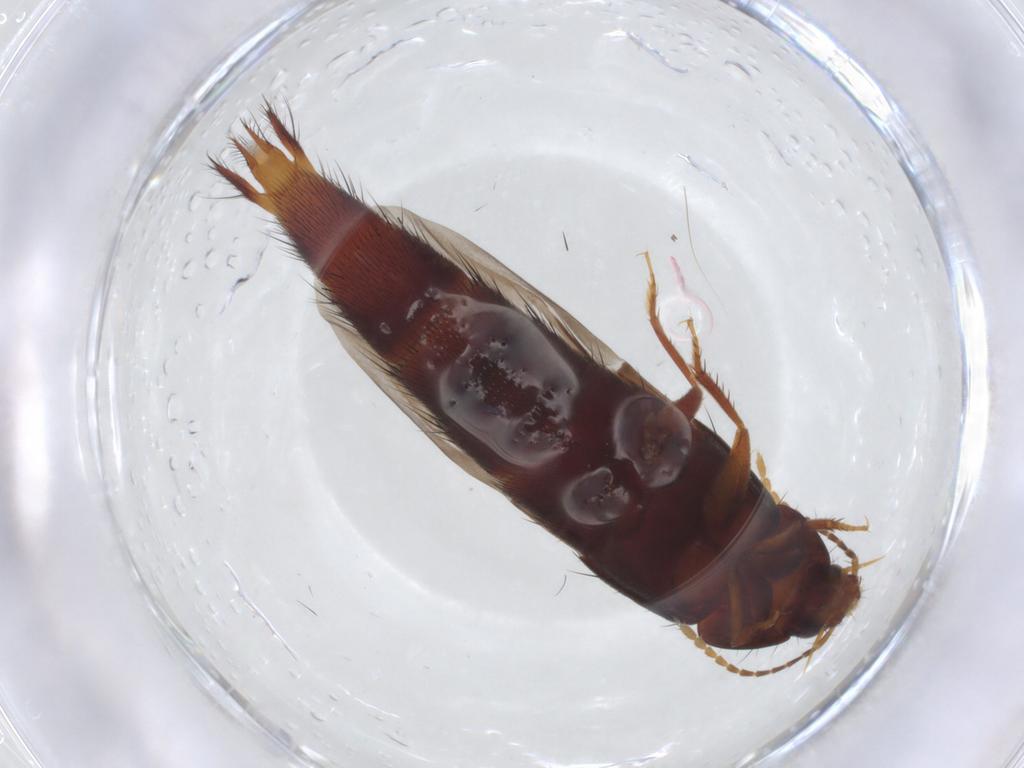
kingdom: Animalia
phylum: Arthropoda
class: Insecta
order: Coleoptera
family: Staphylinidae
